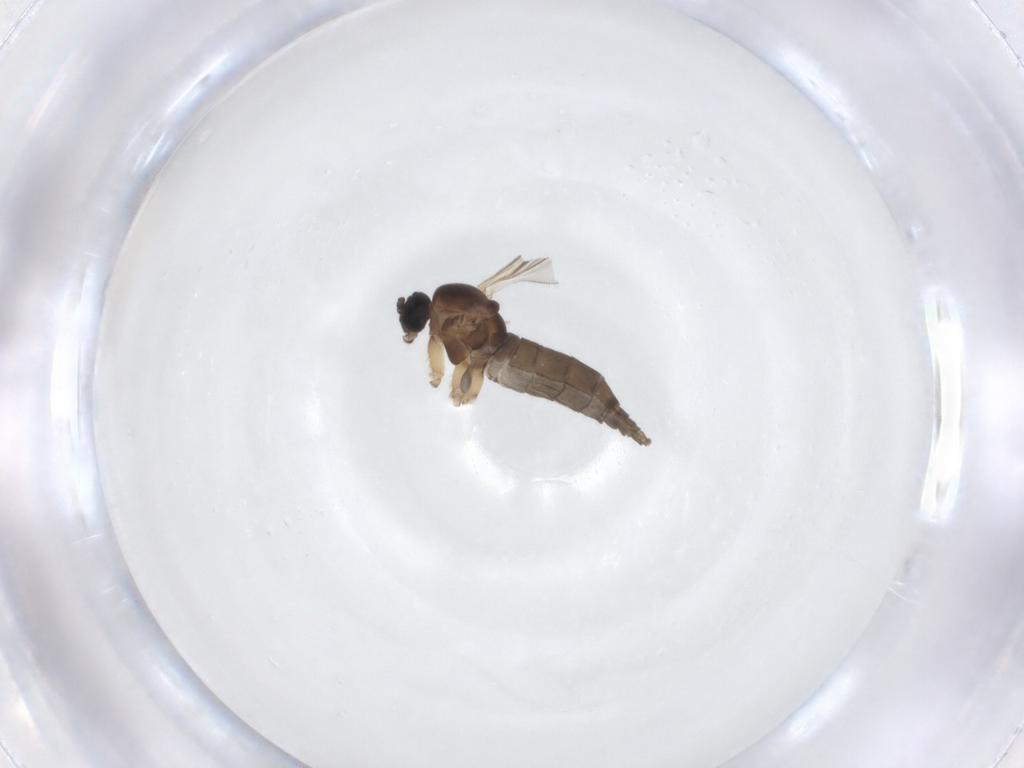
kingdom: Animalia
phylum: Arthropoda
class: Insecta
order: Diptera
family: Sciaridae
